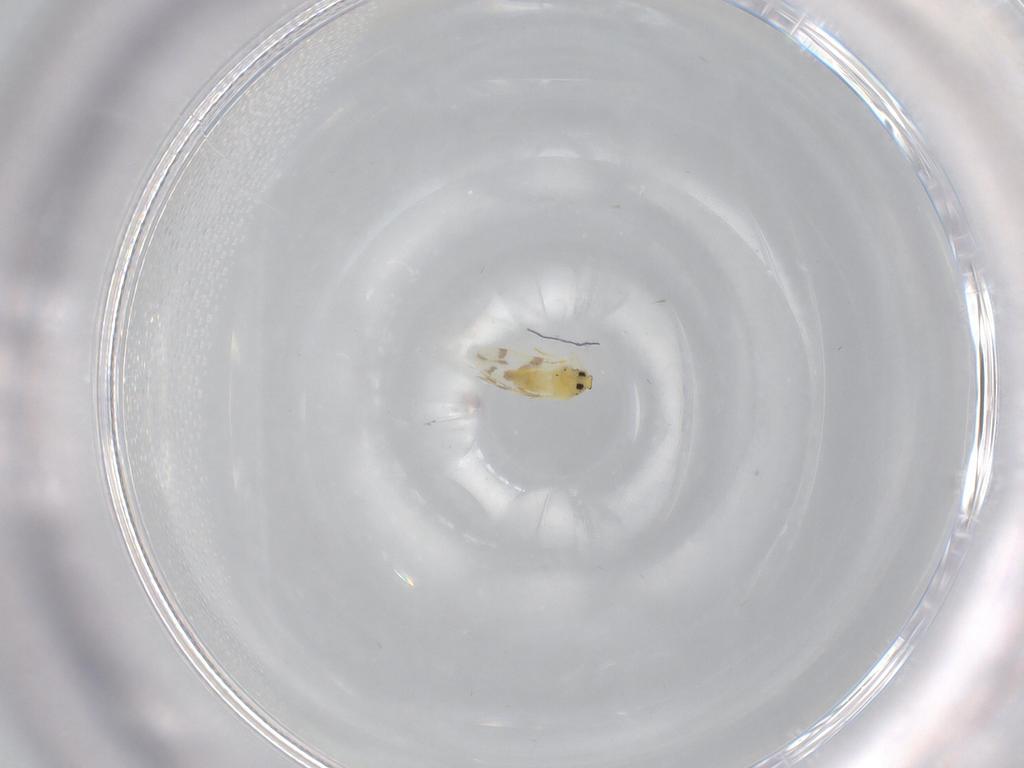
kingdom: Animalia
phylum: Arthropoda
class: Insecta
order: Hemiptera
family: Aleyrodidae
